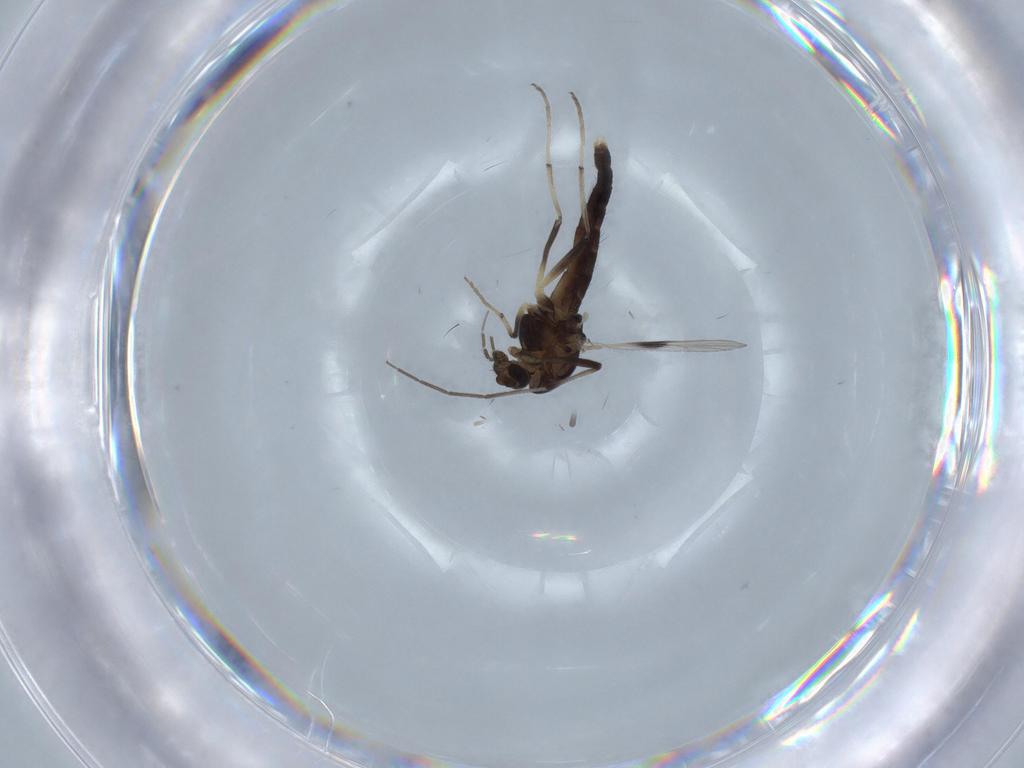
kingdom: Animalia
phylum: Arthropoda
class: Insecta
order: Diptera
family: Chironomidae
